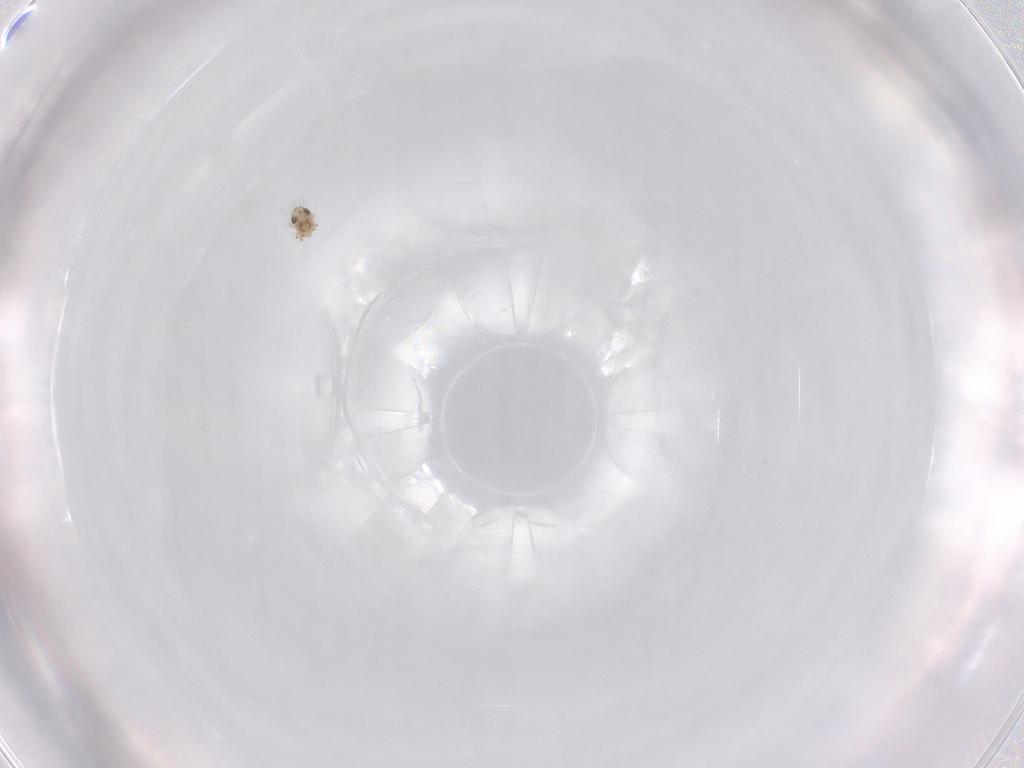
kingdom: Animalia
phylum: Arthropoda
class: Arachnida
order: Sarcoptiformes
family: Humerobatidae
